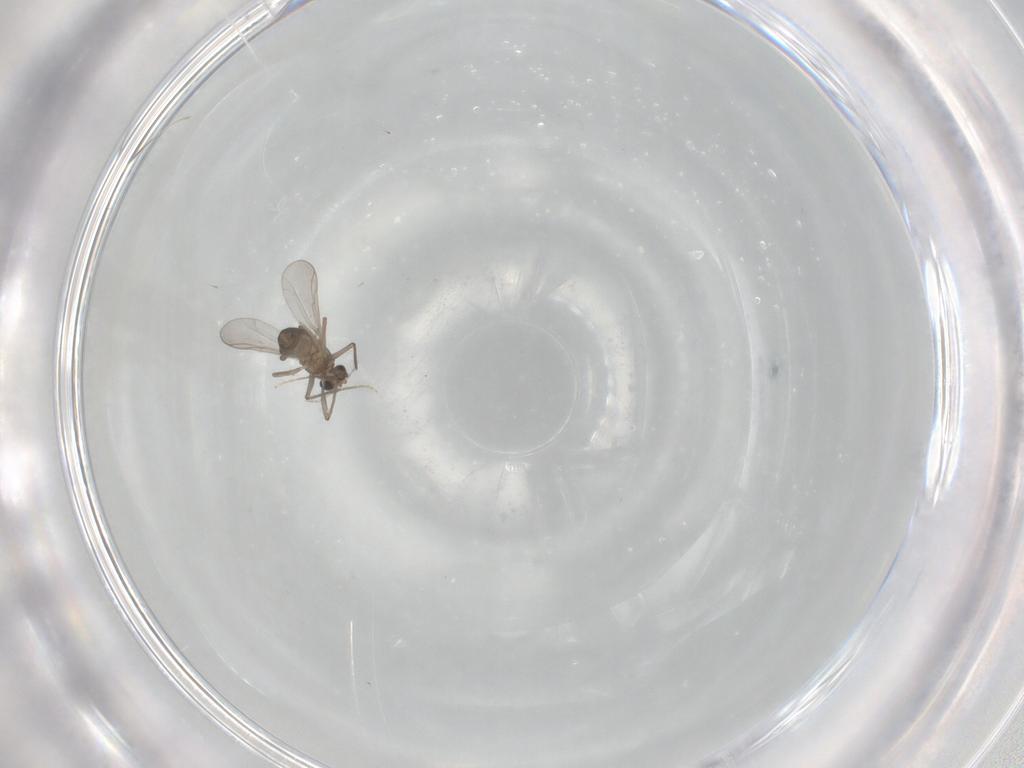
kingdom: Animalia
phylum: Arthropoda
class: Insecta
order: Diptera
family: Chironomidae
